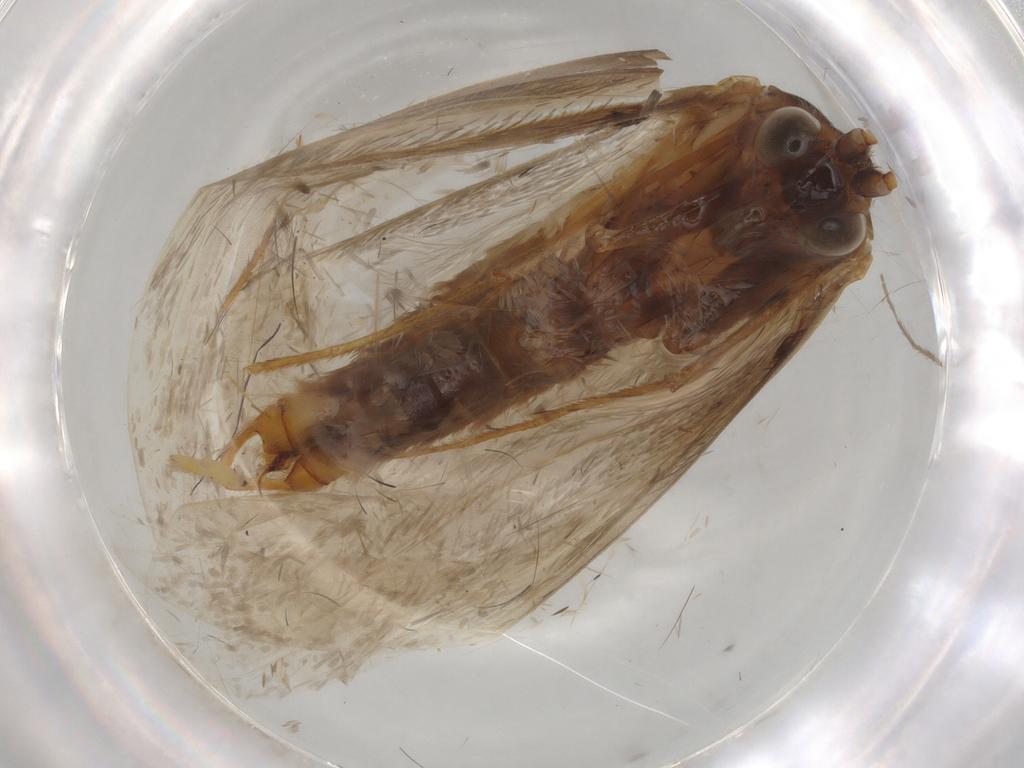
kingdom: Animalia
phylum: Arthropoda
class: Insecta
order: Lepidoptera
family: Adelidae
